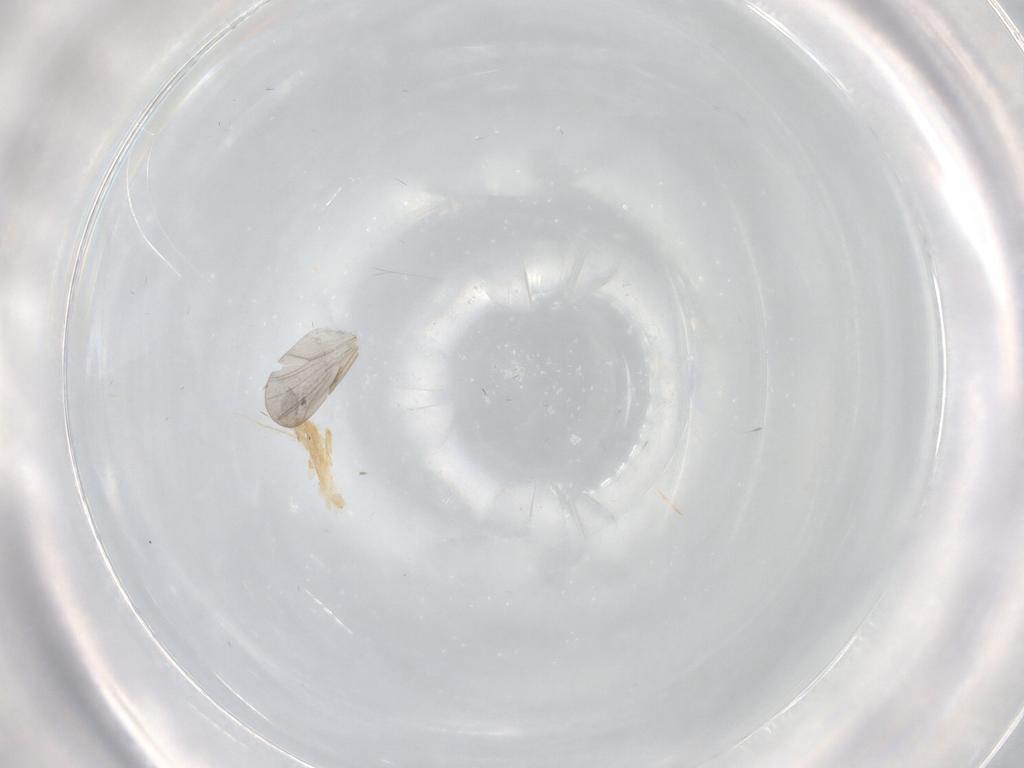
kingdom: Animalia
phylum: Arthropoda
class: Insecta
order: Diptera
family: Ceratopogonidae
